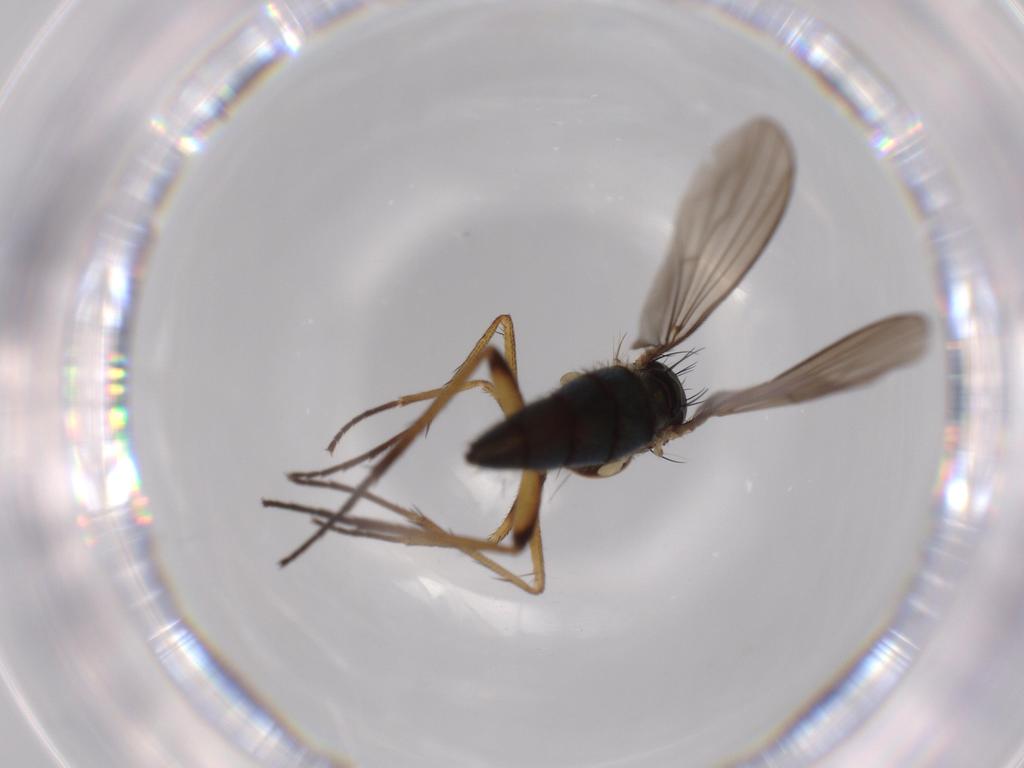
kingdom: Animalia
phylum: Arthropoda
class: Insecta
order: Diptera
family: Dolichopodidae
